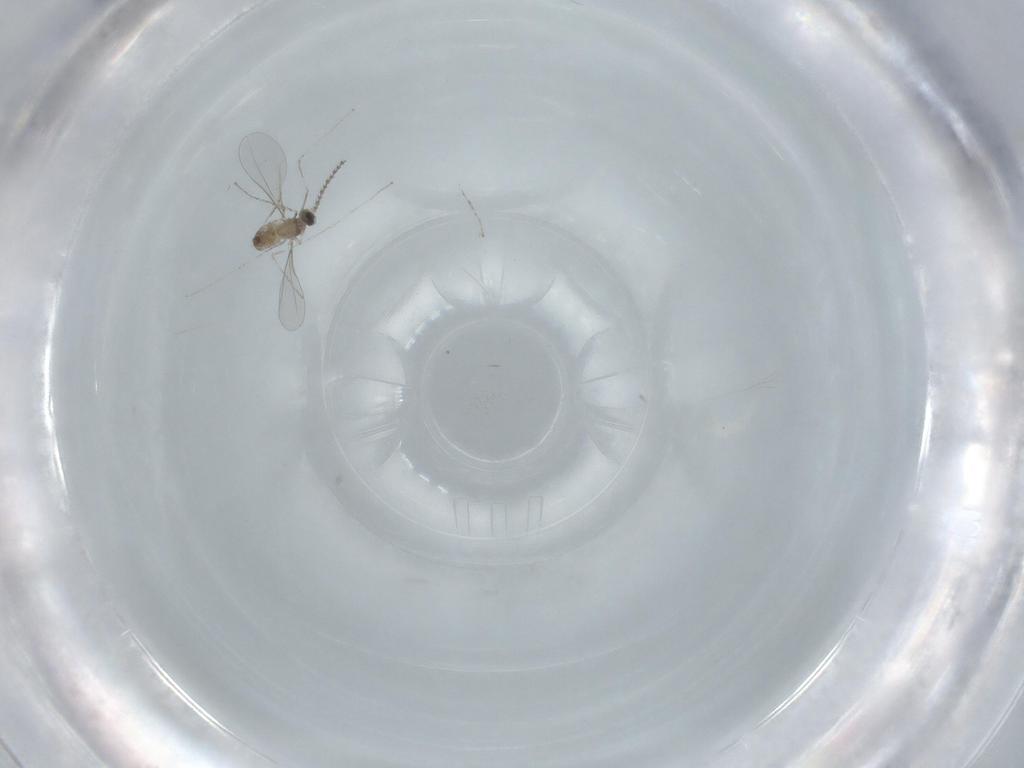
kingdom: Animalia
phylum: Arthropoda
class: Insecta
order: Diptera
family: Cecidomyiidae
